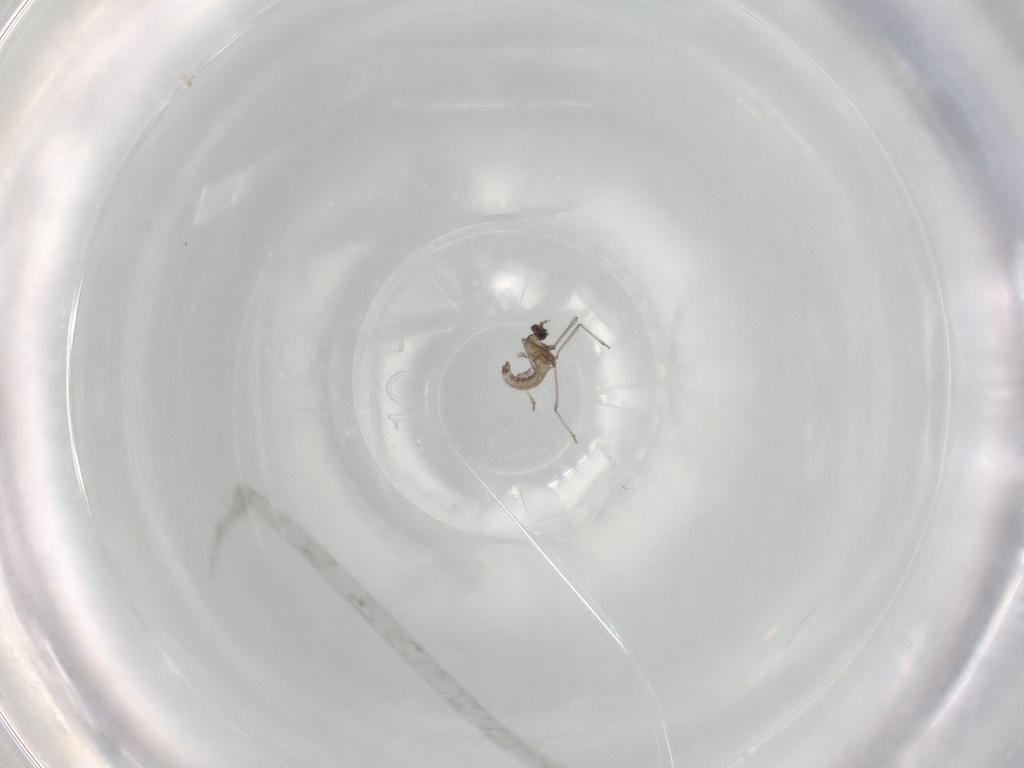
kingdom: Animalia
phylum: Arthropoda
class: Insecta
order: Diptera
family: Cecidomyiidae
